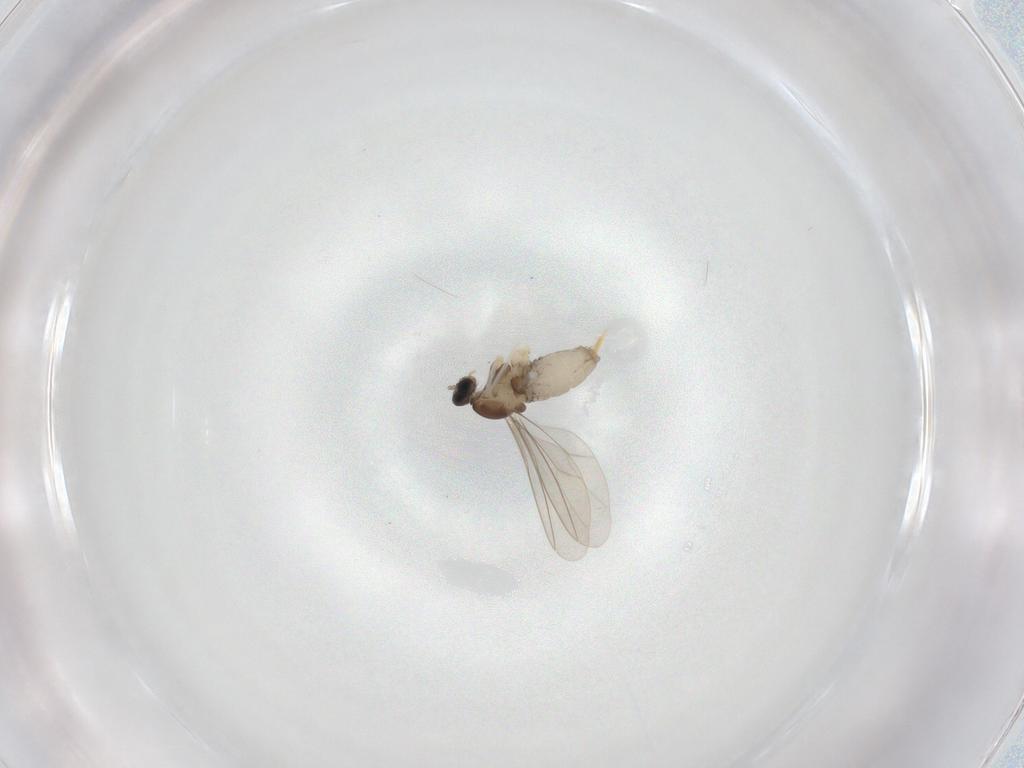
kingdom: Animalia
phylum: Arthropoda
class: Insecta
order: Diptera
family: Cecidomyiidae
